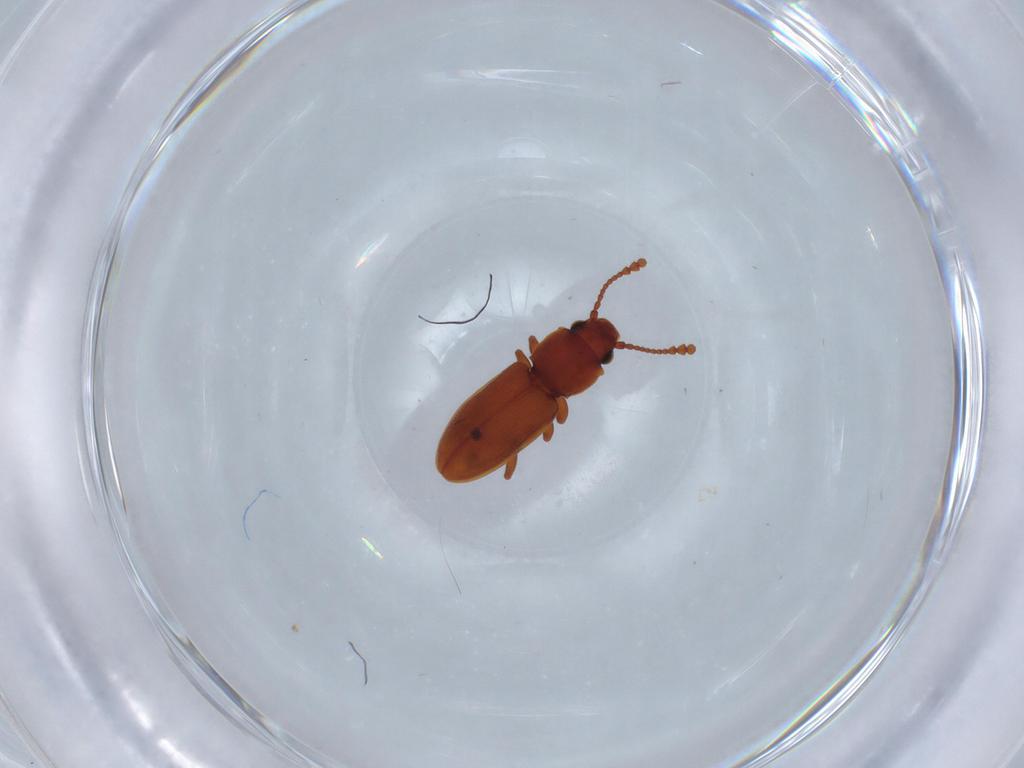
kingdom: Animalia
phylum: Arthropoda
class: Insecta
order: Coleoptera
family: Silvanidae
